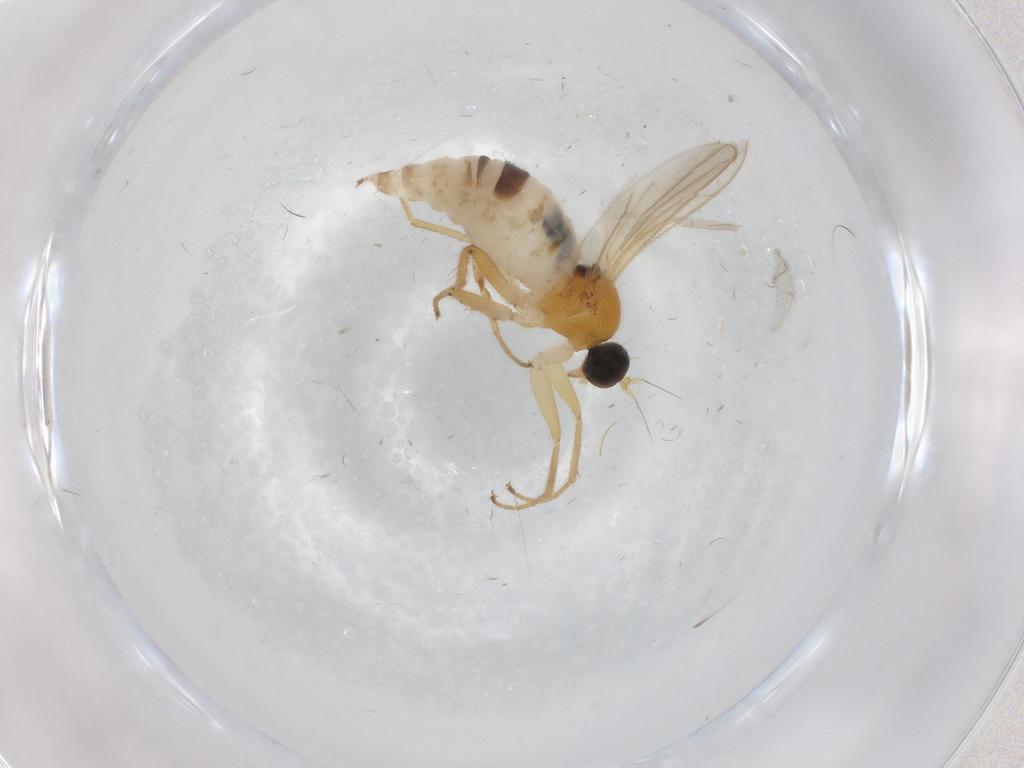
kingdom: Animalia
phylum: Arthropoda
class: Insecta
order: Diptera
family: Hybotidae
